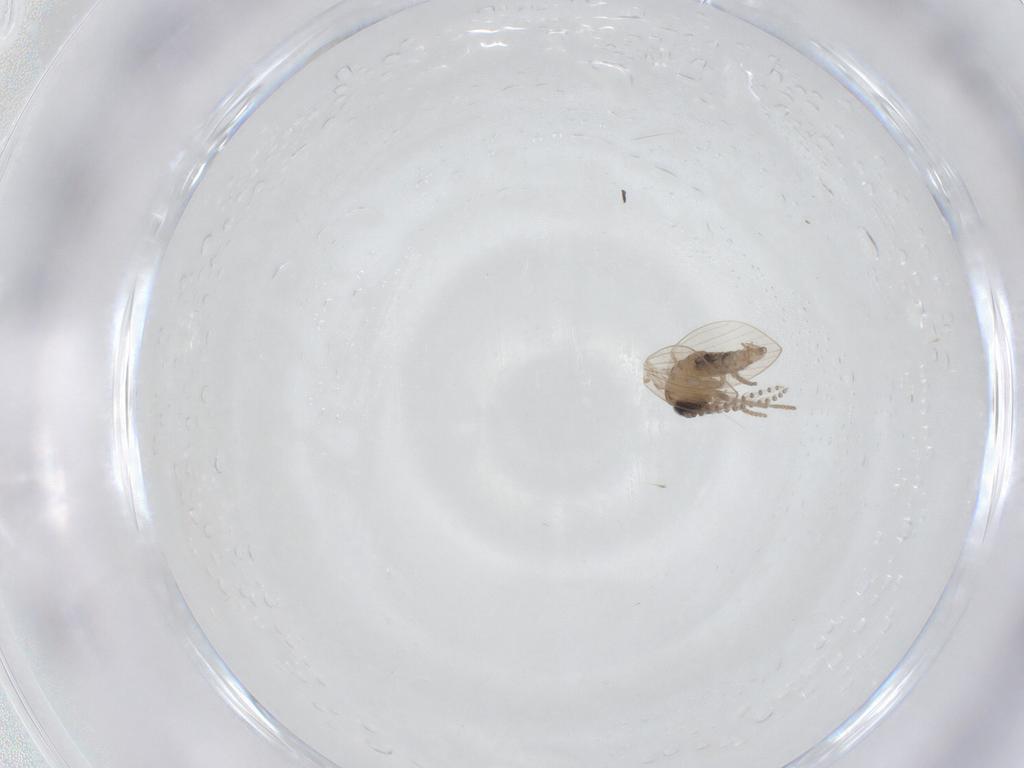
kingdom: Animalia
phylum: Arthropoda
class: Insecta
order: Diptera
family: Psychodidae
